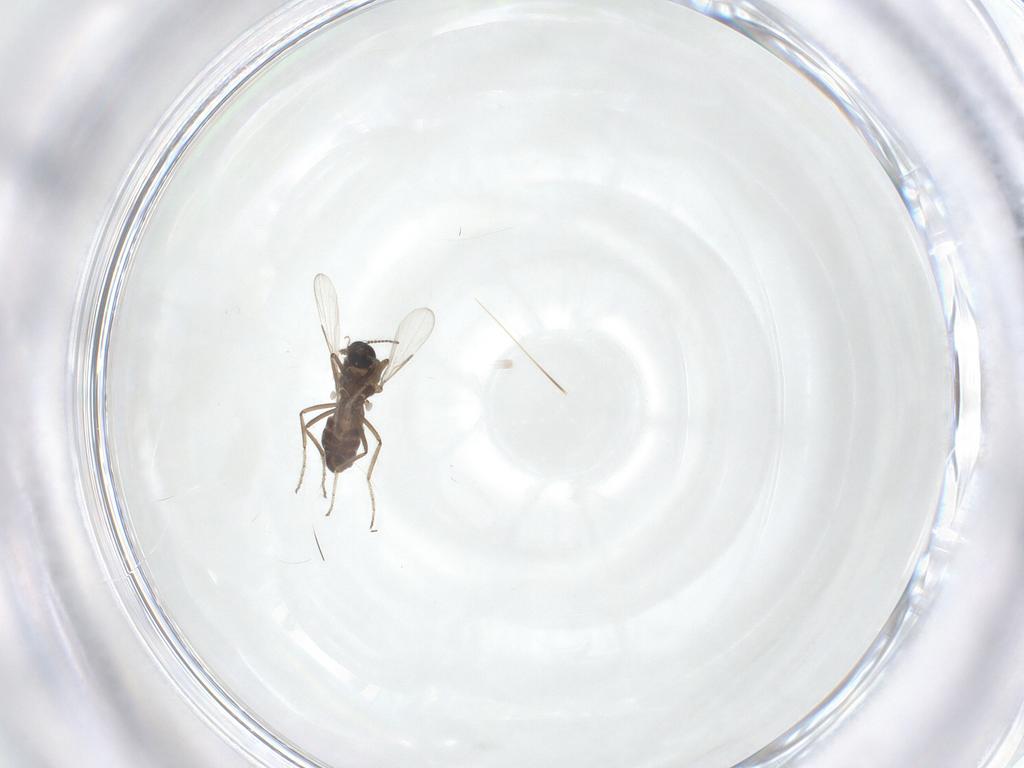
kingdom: Animalia
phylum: Arthropoda
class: Insecta
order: Diptera
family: Ceratopogonidae
